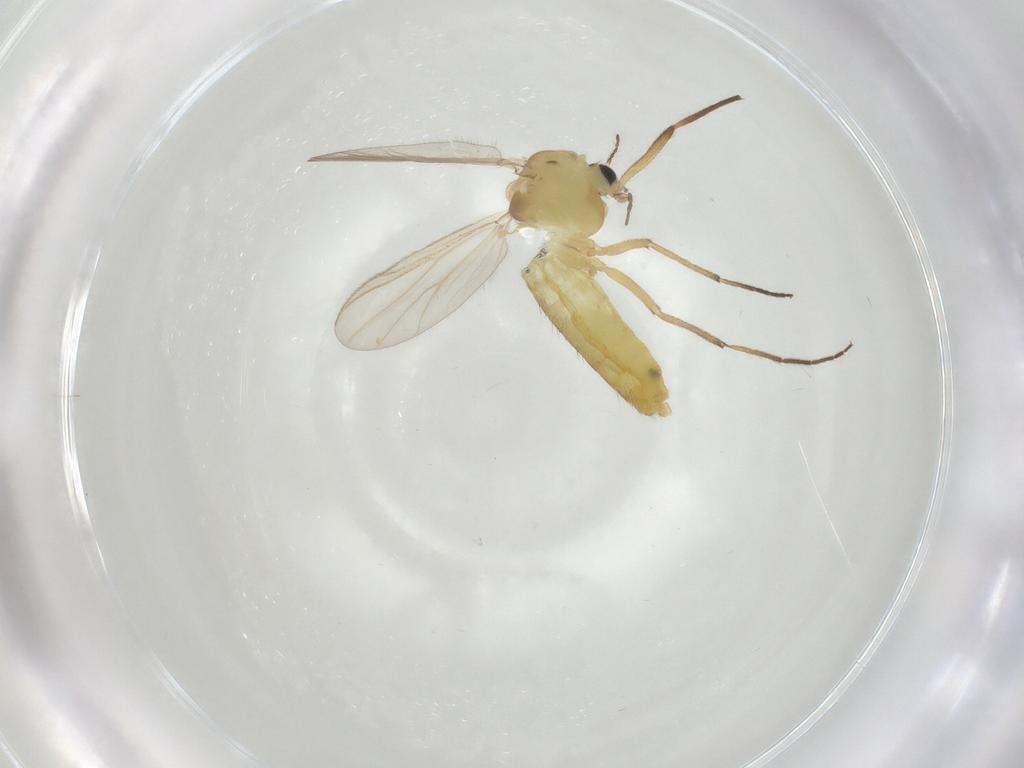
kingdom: Animalia
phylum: Arthropoda
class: Insecta
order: Diptera
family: Chironomidae
